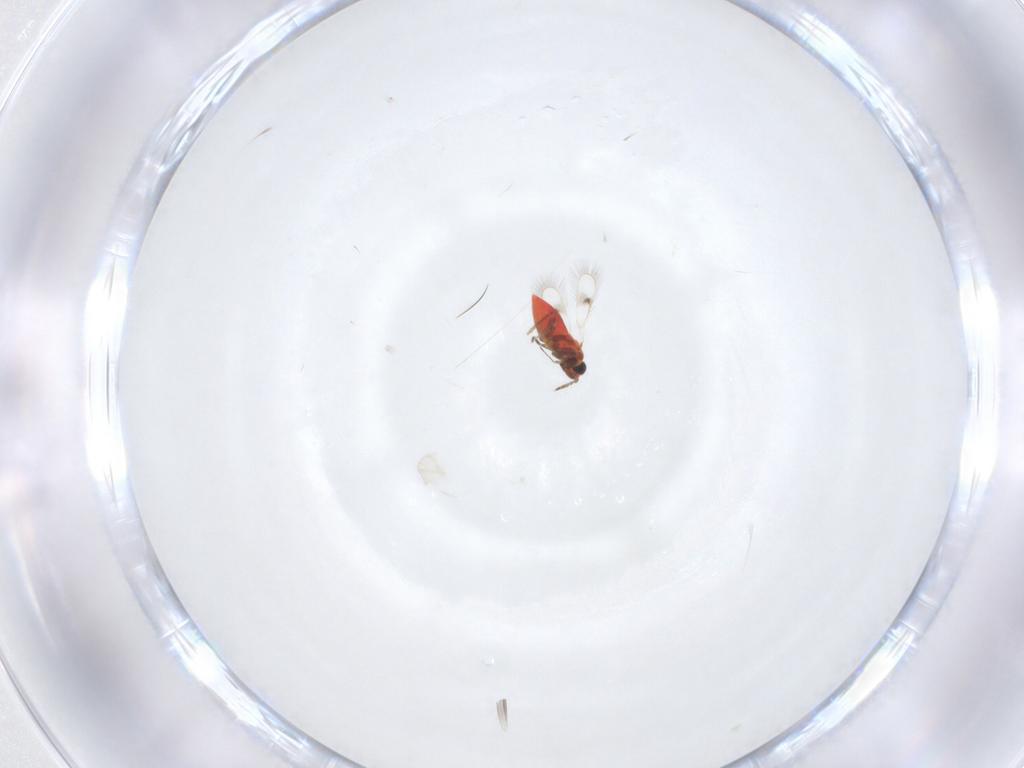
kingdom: Animalia
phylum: Arthropoda
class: Insecta
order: Hymenoptera
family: Trichogrammatidae
